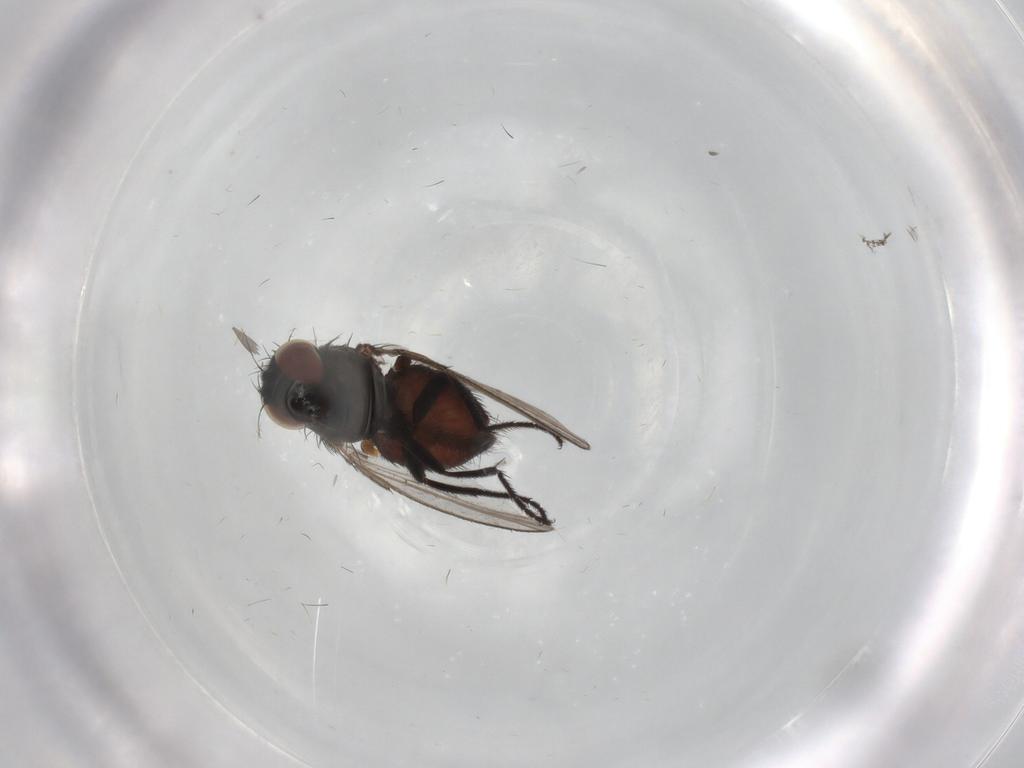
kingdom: Animalia
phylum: Arthropoda
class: Insecta
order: Diptera
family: Milichiidae
